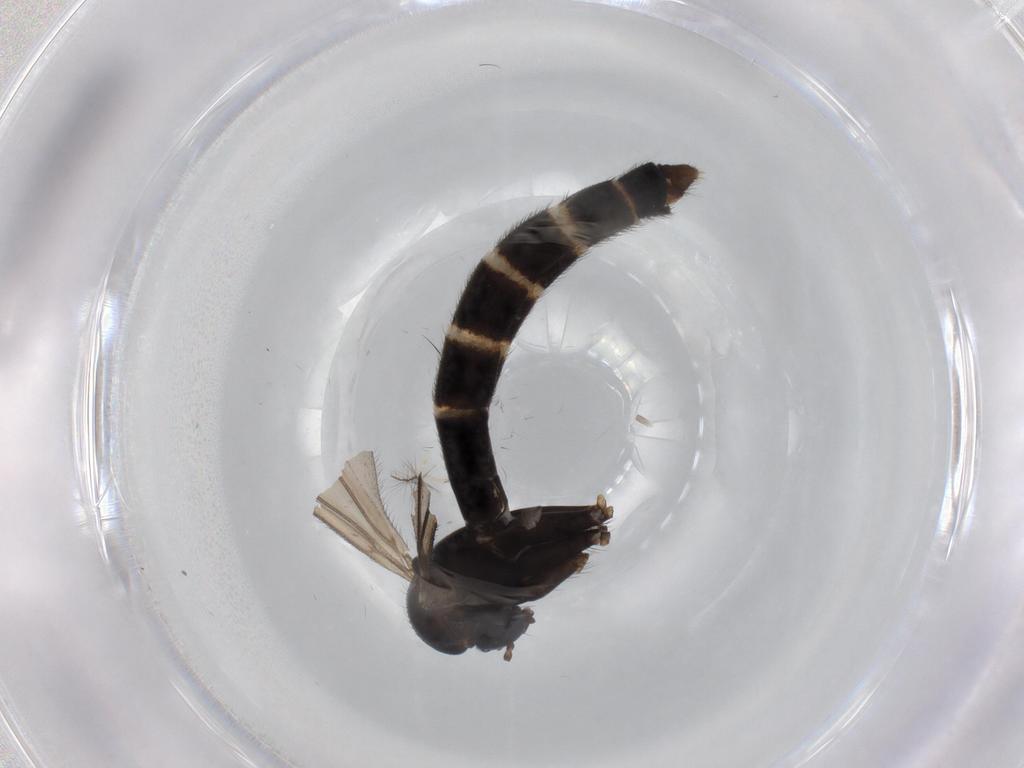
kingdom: Animalia
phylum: Arthropoda
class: Insecta
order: Diptera
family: Ditomyiidae
